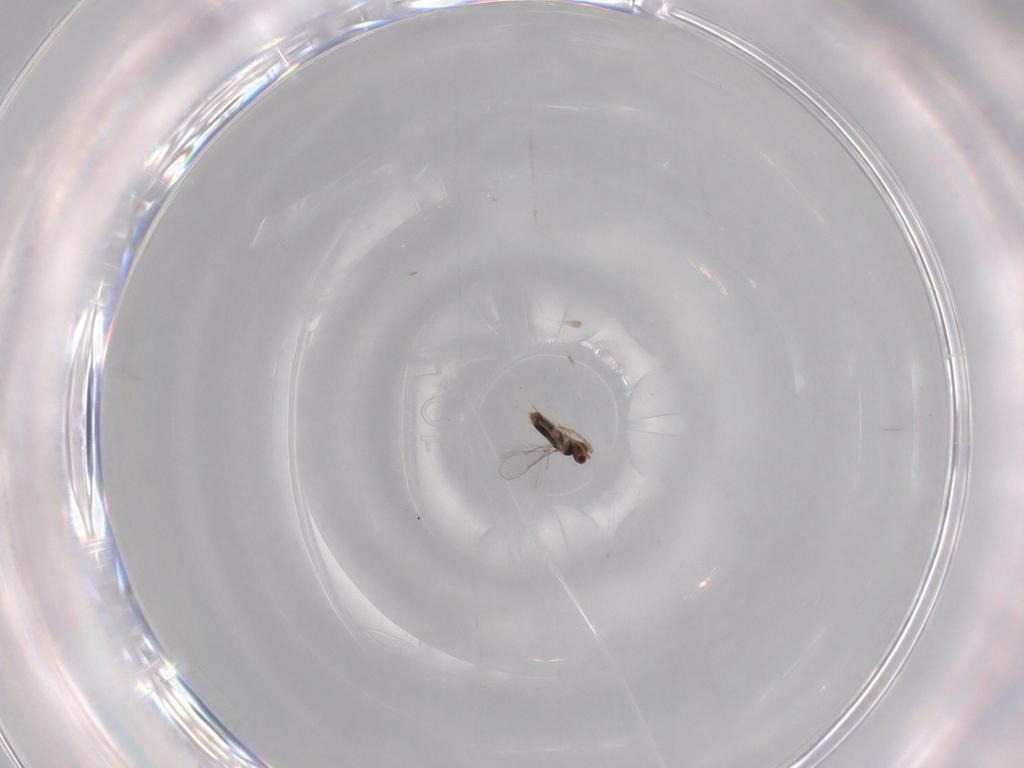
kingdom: Animalia
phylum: Arthropoda
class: Insecta
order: Hymenoptera
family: Aphelinidae
